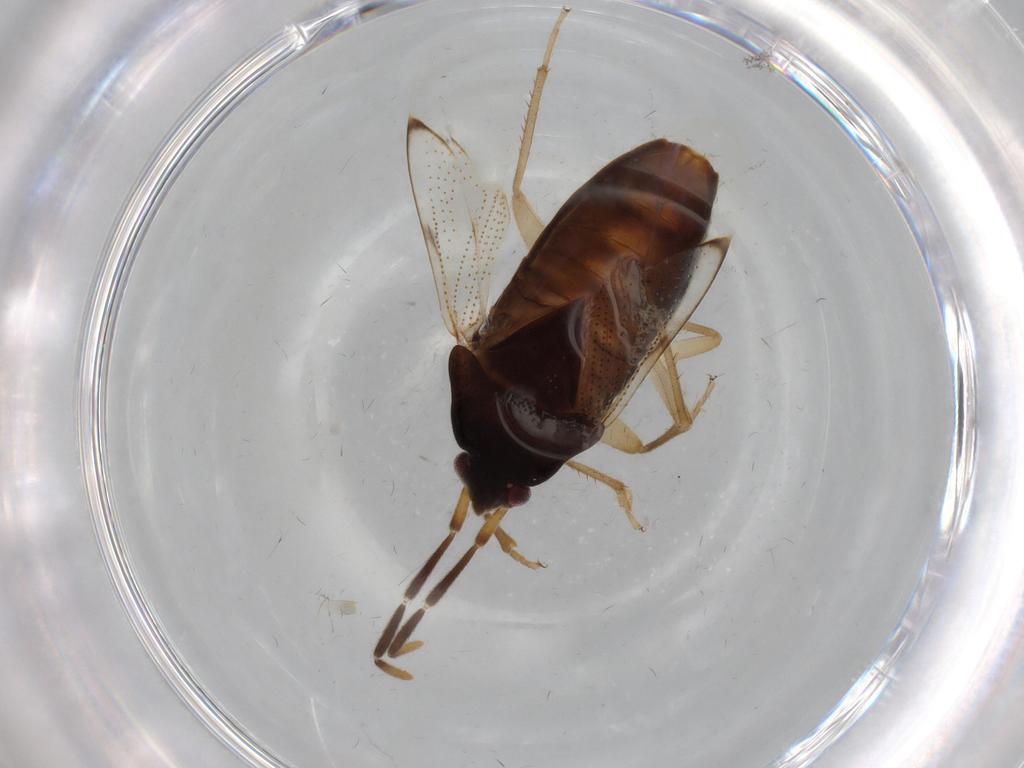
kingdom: Animalia
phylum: Arthropoda
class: Insecta
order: Hemiptera
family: Rhyparochromidae
